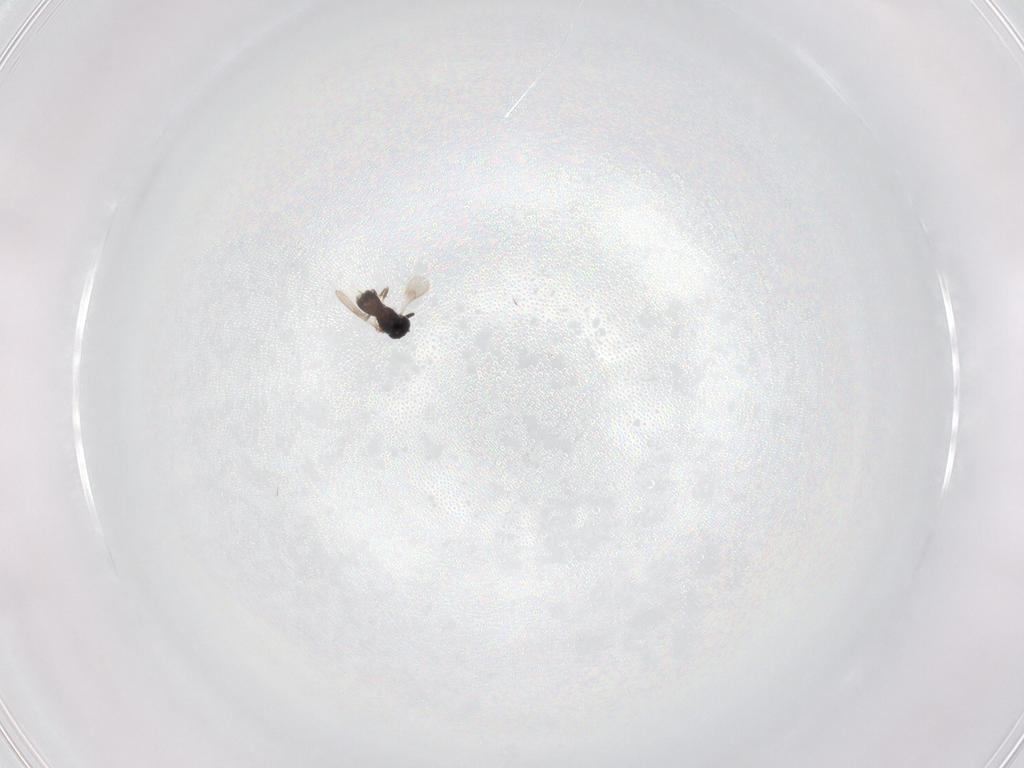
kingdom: Animalia
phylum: Arthropoda
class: Insecta
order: Hymenoptera
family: Scelionidae
